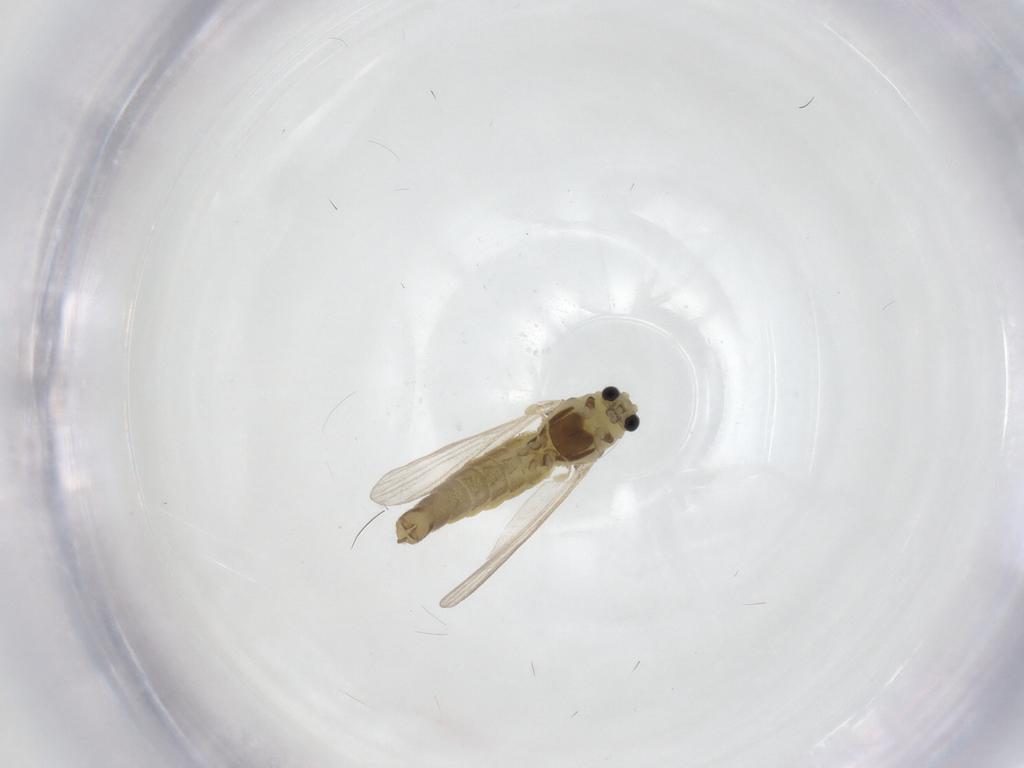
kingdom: Animalia
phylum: Arthropoda
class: Insecta
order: Diptera
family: Chironomidae
